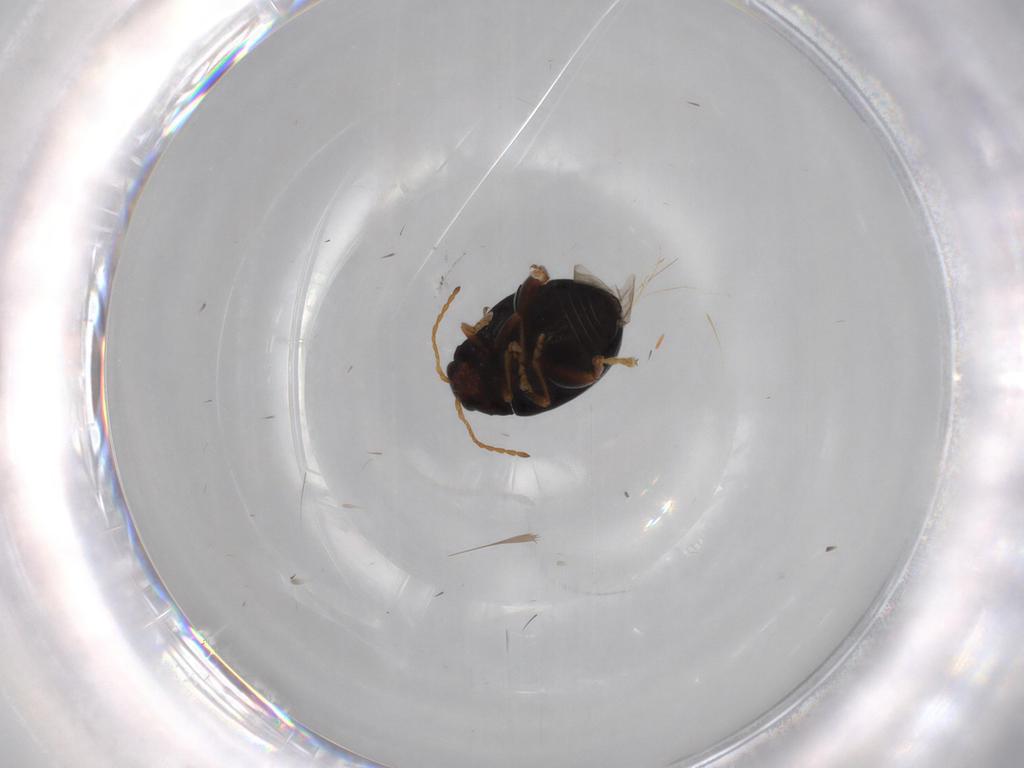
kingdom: Animalia
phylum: Arthropoda
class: Insecta
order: Coleoptera
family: Chrysomelidae
